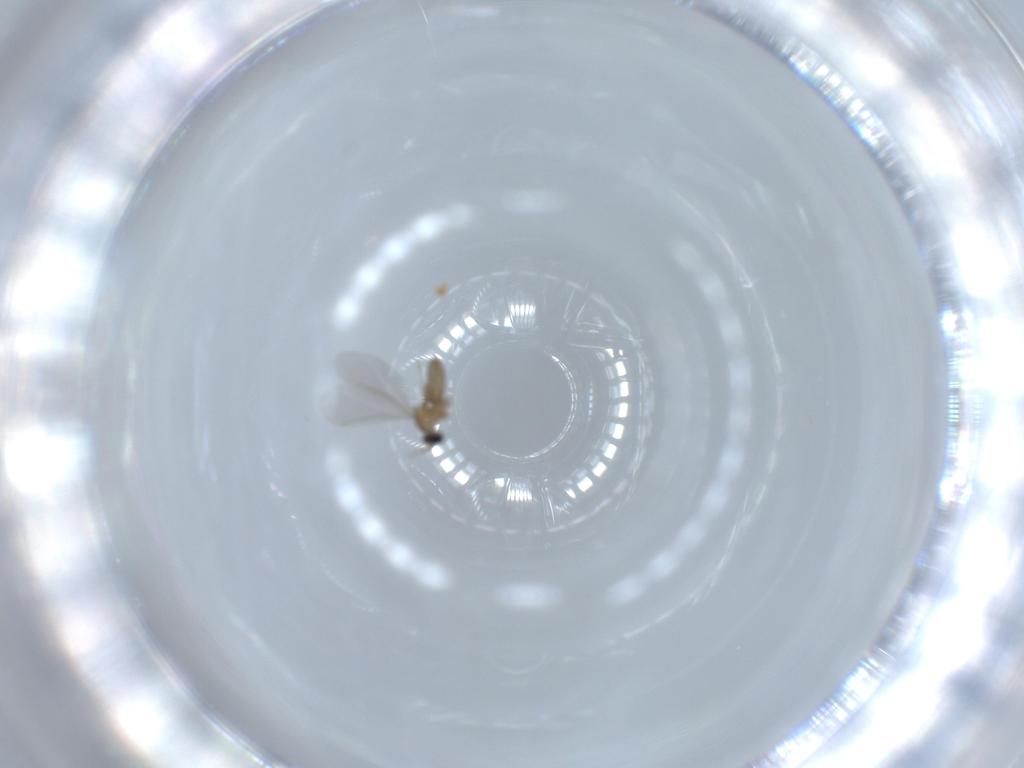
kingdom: Animalia
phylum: Arthropoda
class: Insecta
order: Diptera
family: Cecidomyiidae
